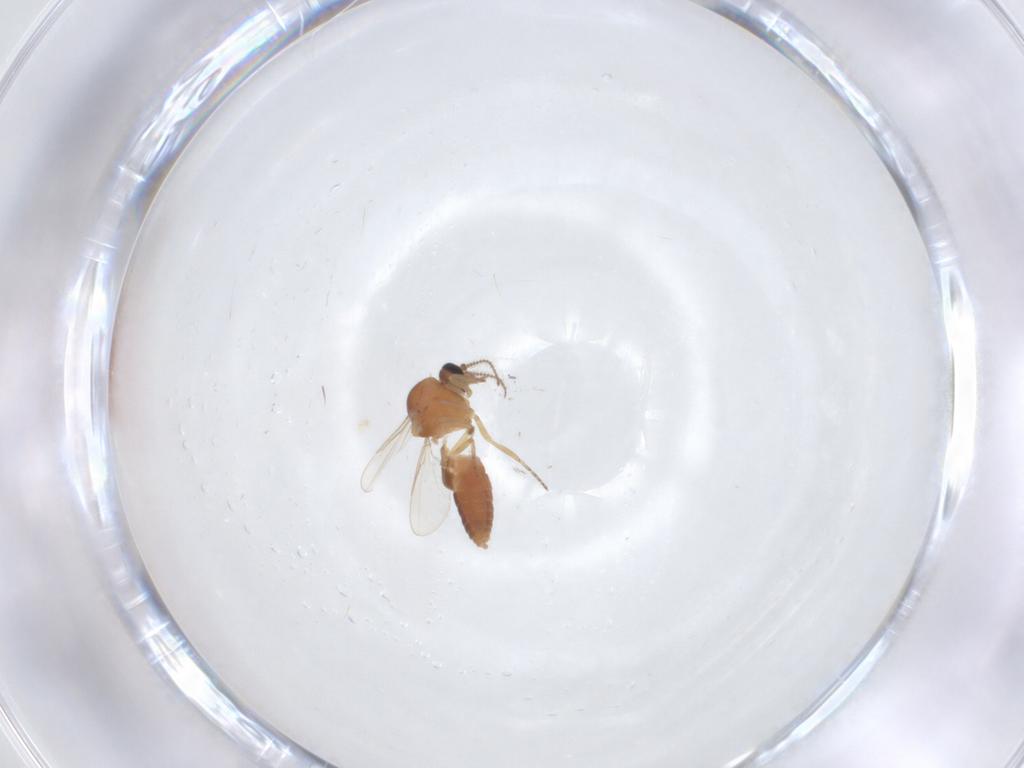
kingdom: Animalia
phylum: Arthropoda
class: Insecta
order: Diptera
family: Ceratopogonidae
